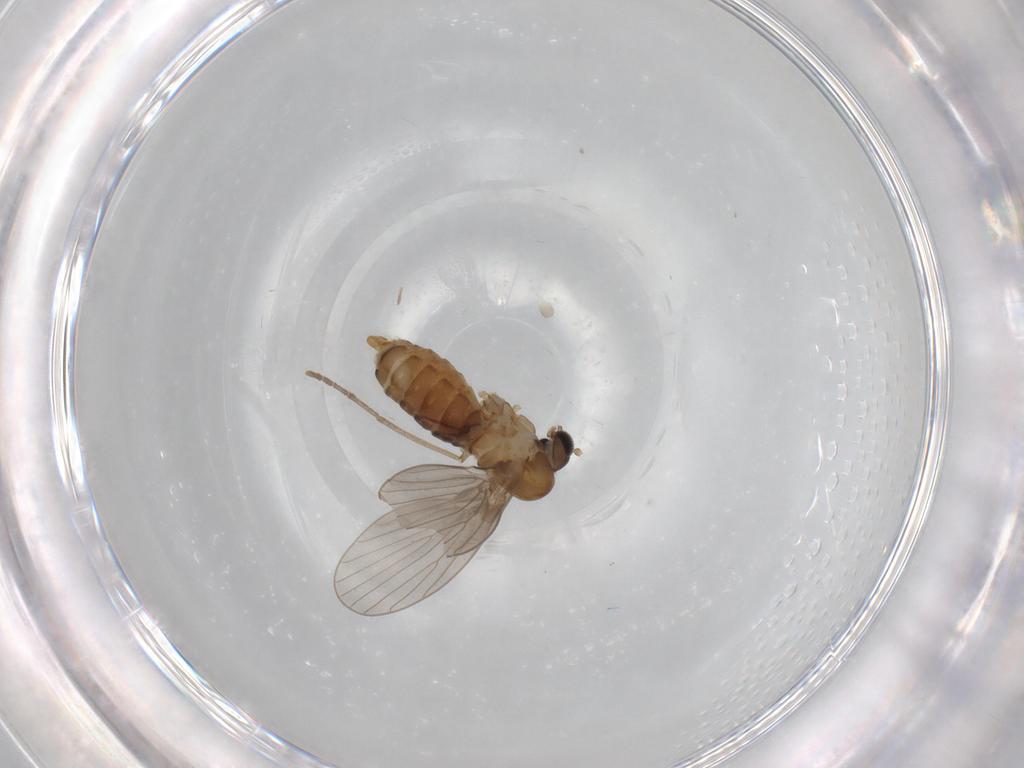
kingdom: Animalia
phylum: Arthropoda
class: Insecta
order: Diptera
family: Psychodidae
